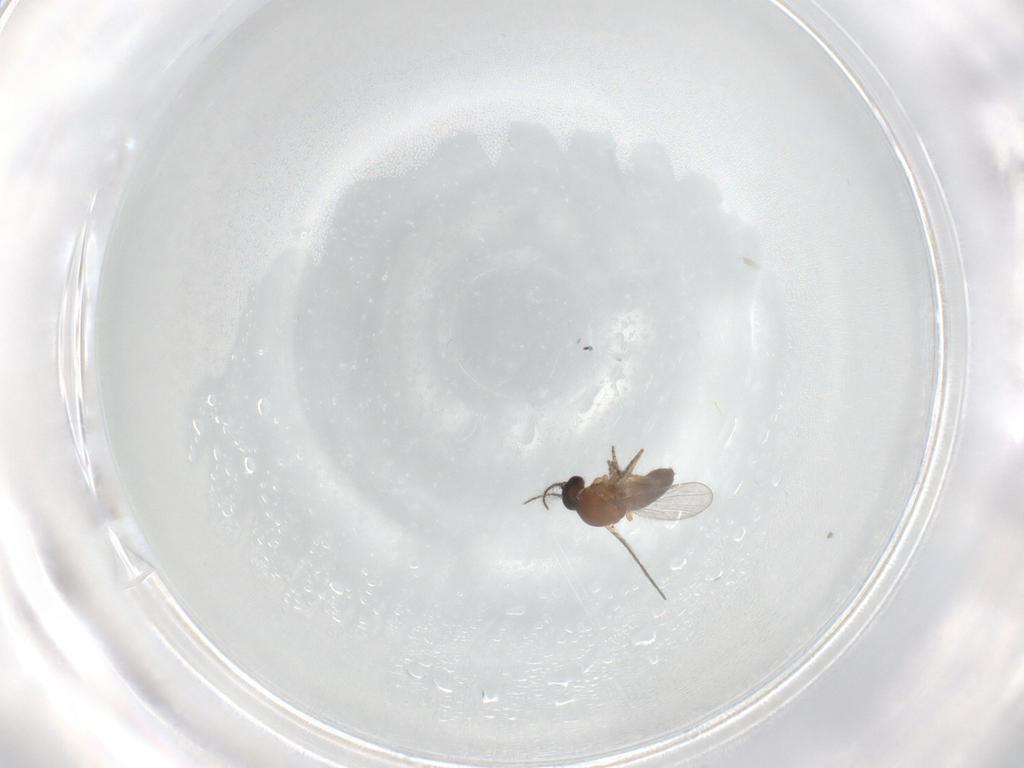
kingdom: Animalia
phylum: Arthropoda
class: Insecta
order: Diptera
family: Ceratopogonidae
